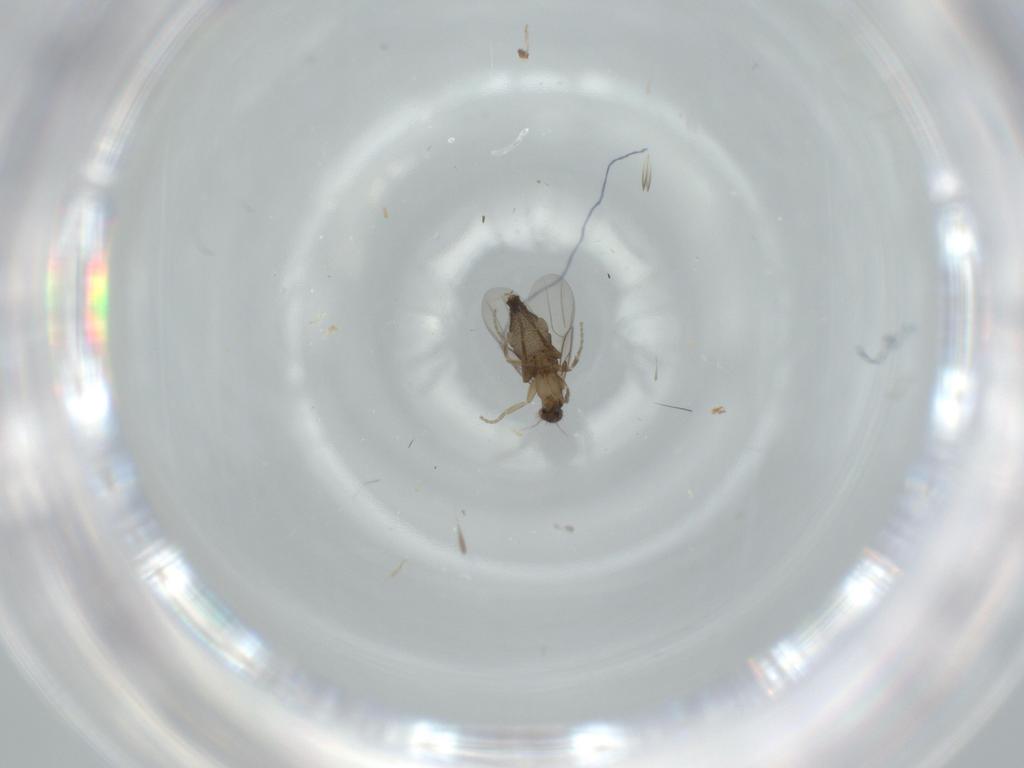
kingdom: Animalia
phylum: Arthropoda
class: Insecta
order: Diptera
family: Phoridae
